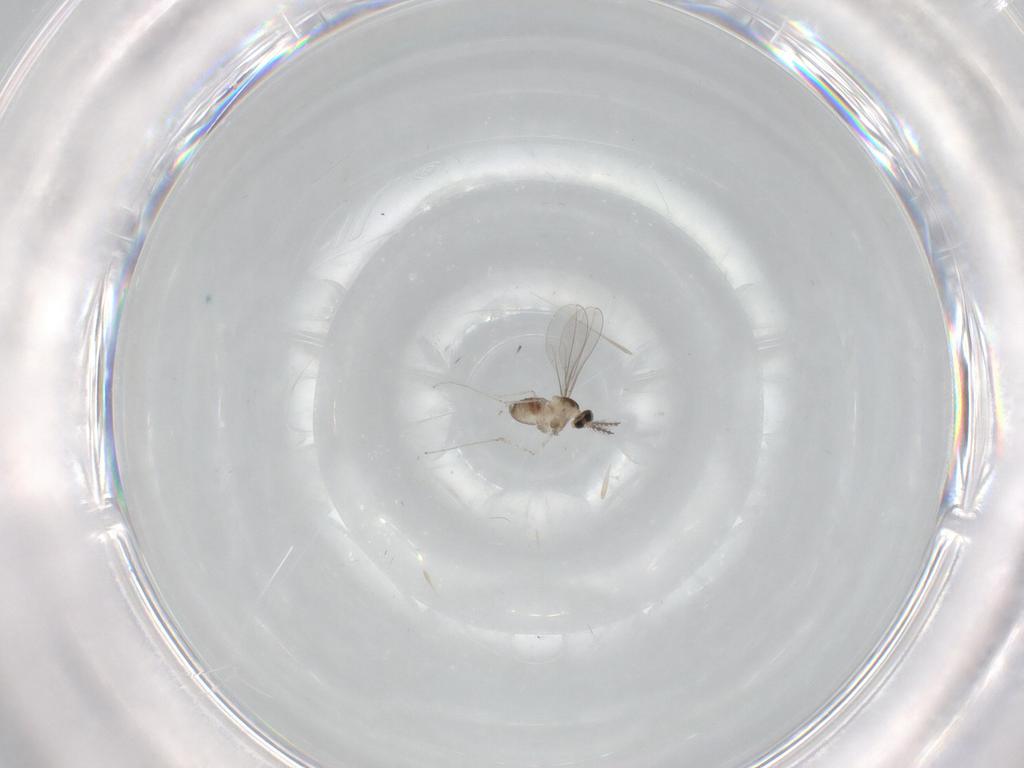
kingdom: Animalia
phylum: Arthropoda
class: Insecta
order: Diptera
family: Cecidomyiidae
